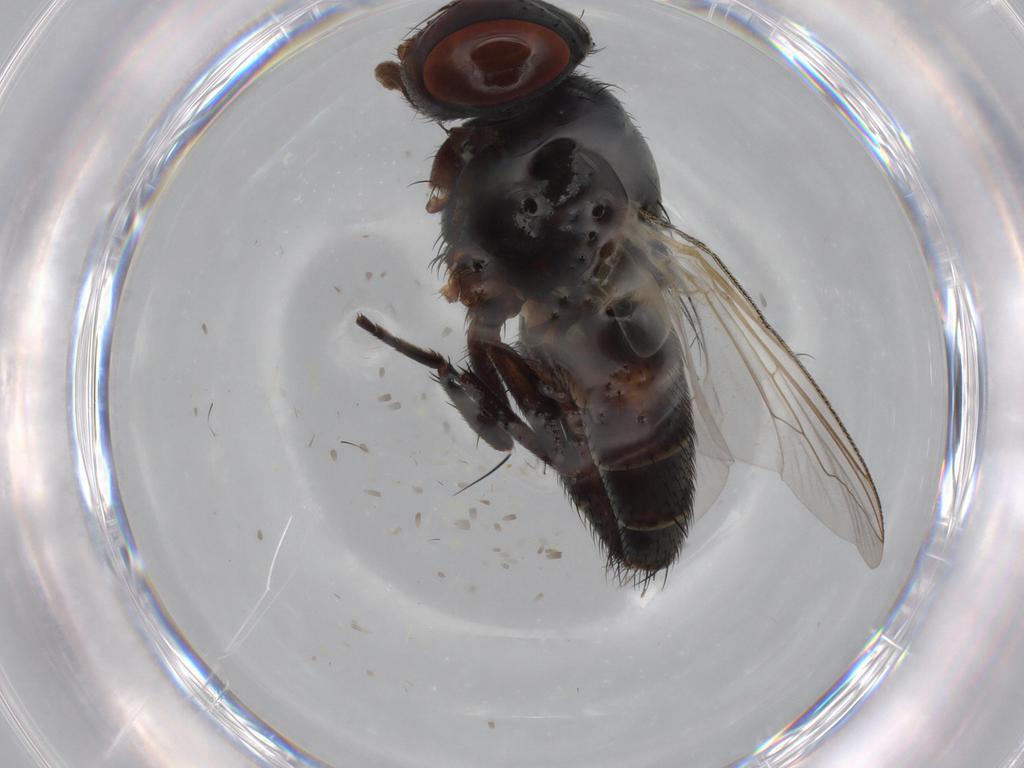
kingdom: Animalia
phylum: Arthropoda
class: Insecta
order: Diptera
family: Sarcophagidae
